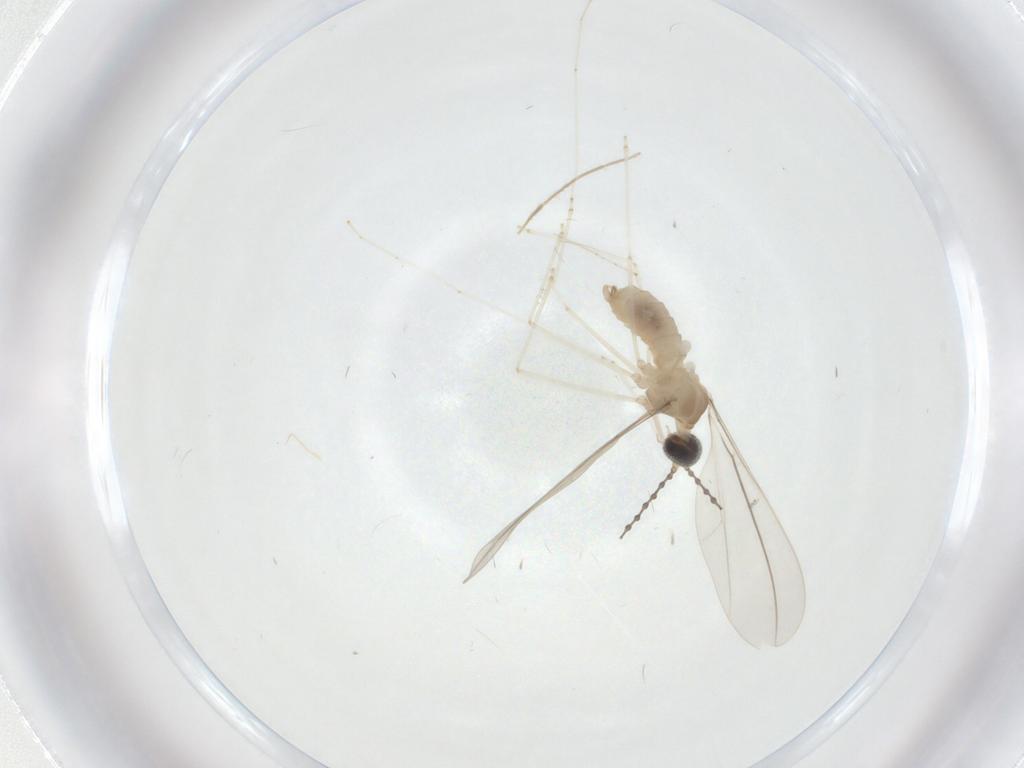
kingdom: Animalia
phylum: Arthropoda
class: Insecta
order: Diptera
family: Cecidomyiidae
